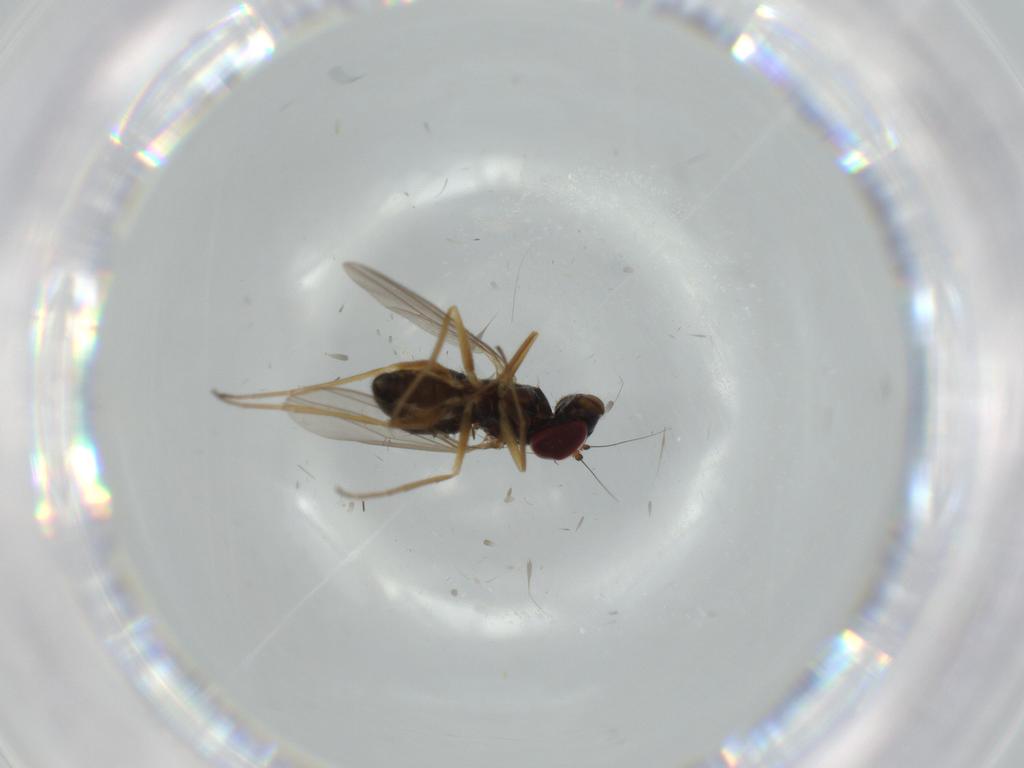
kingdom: Animalia
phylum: Arthropoda
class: Insecta
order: Diptera
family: Dolichopodidae
